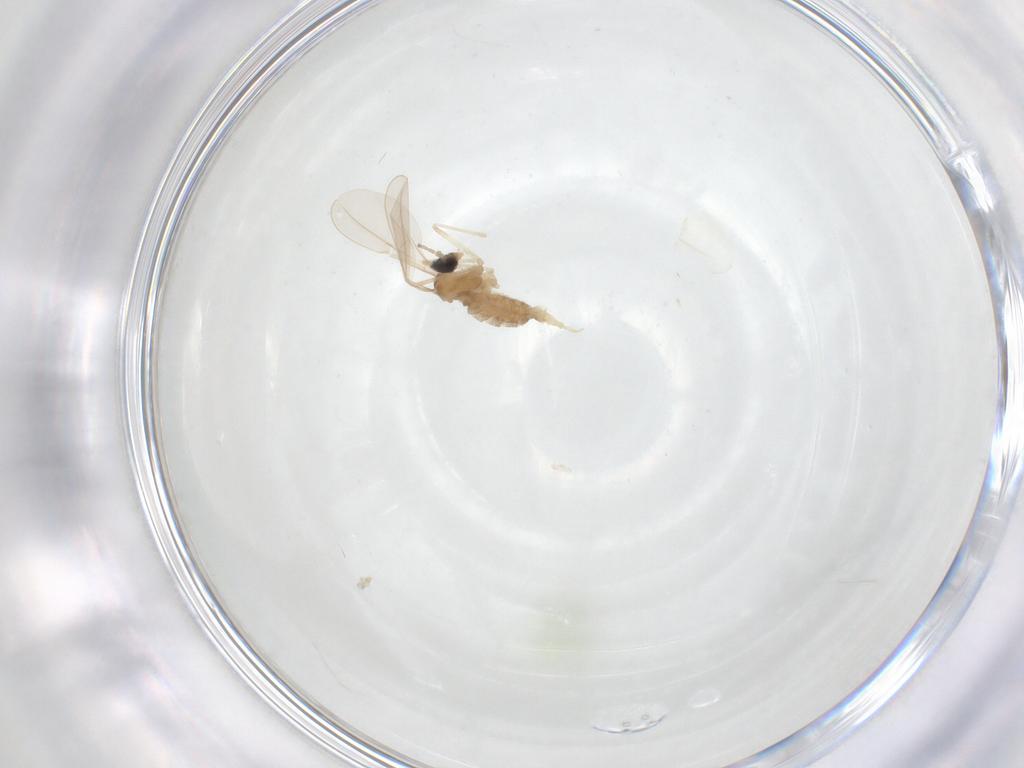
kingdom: Animalia
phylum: Arthropoda
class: Insecta
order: Diptera
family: Cecidomyiidae
